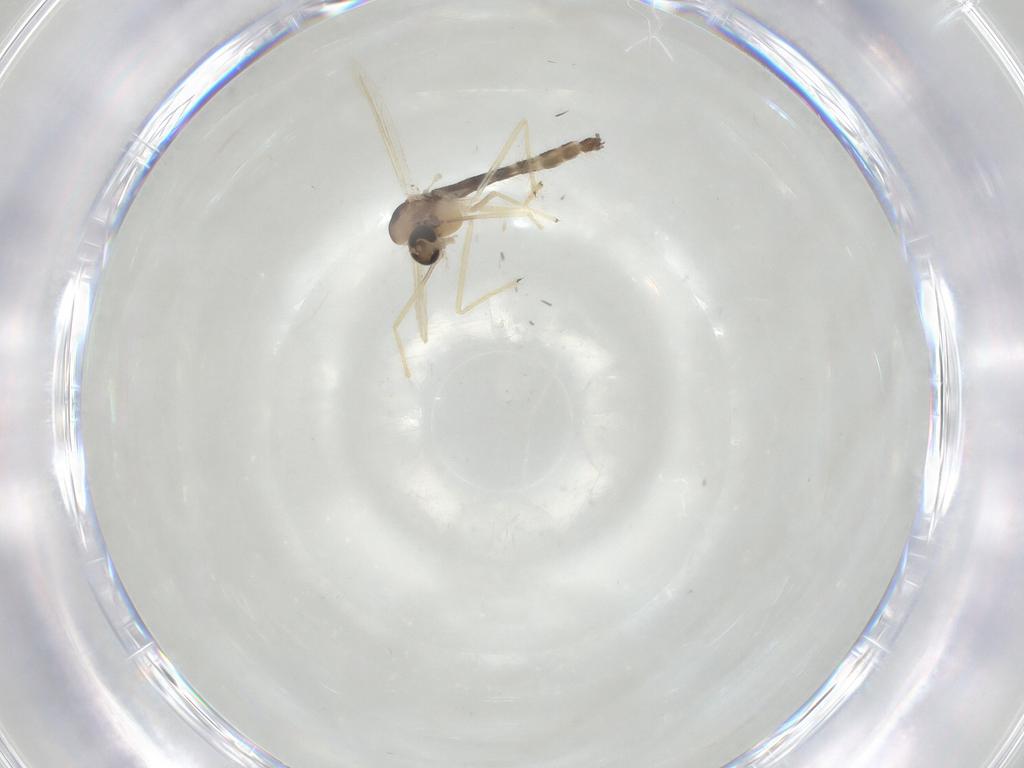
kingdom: Animalia
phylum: Arthropoda
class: Insecta
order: Diptera
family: Chironomidae
